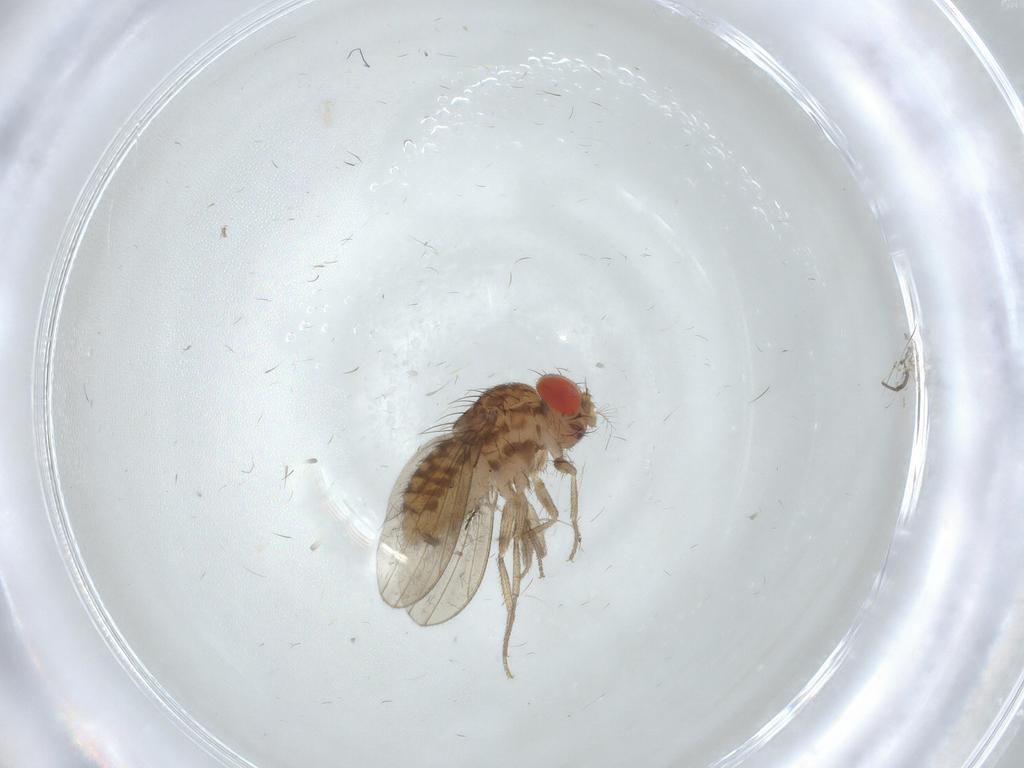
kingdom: Animalia
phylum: Arthropoda
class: Insecta
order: Diptera
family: Drosophilidae
